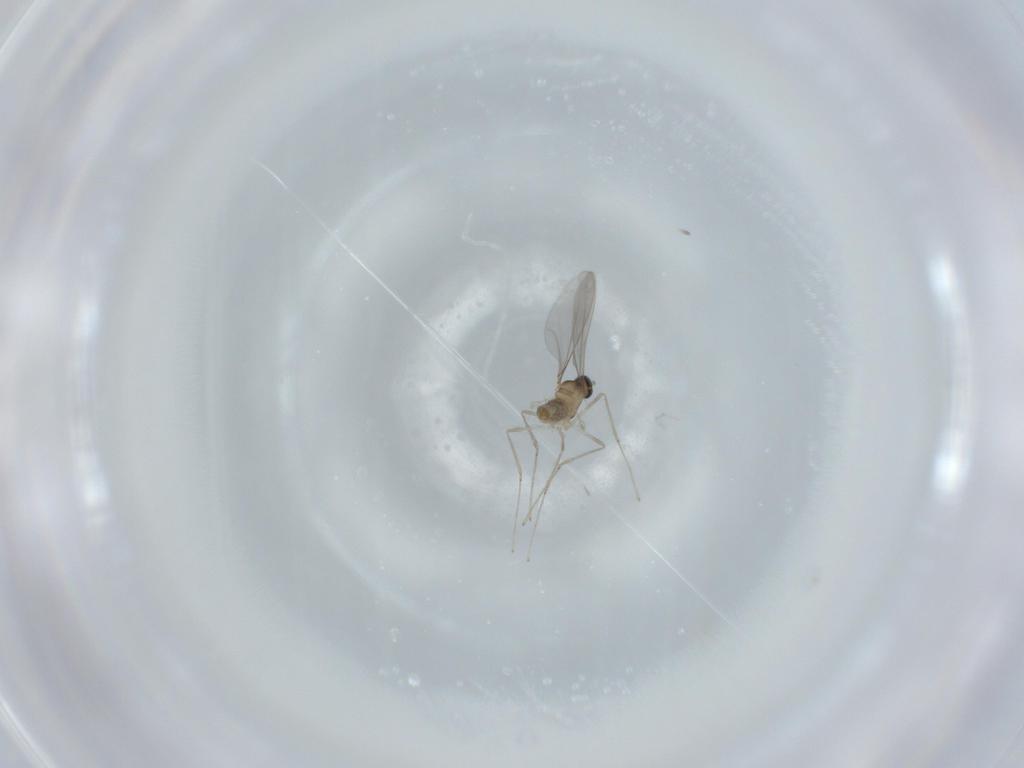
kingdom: Animalia
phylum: Arthropoda
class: Insecta
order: Diptera
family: Cecidomyiidae
